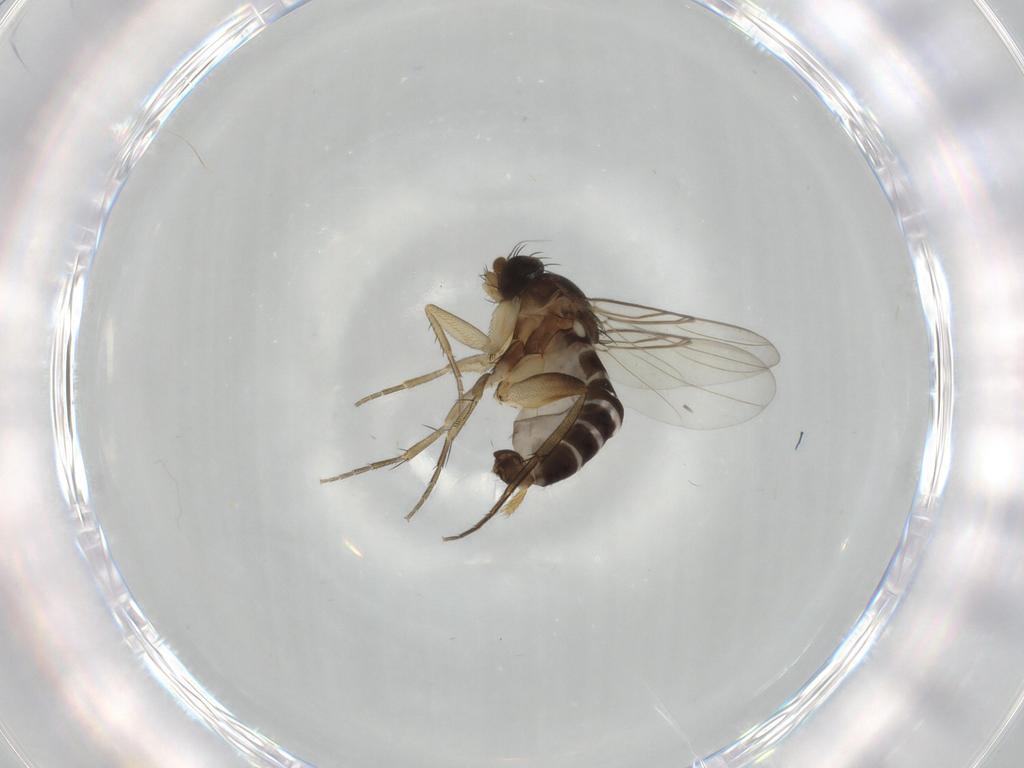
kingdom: Animalia
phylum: Arthropoda
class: Insecta
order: Diptera
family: Phoridae
